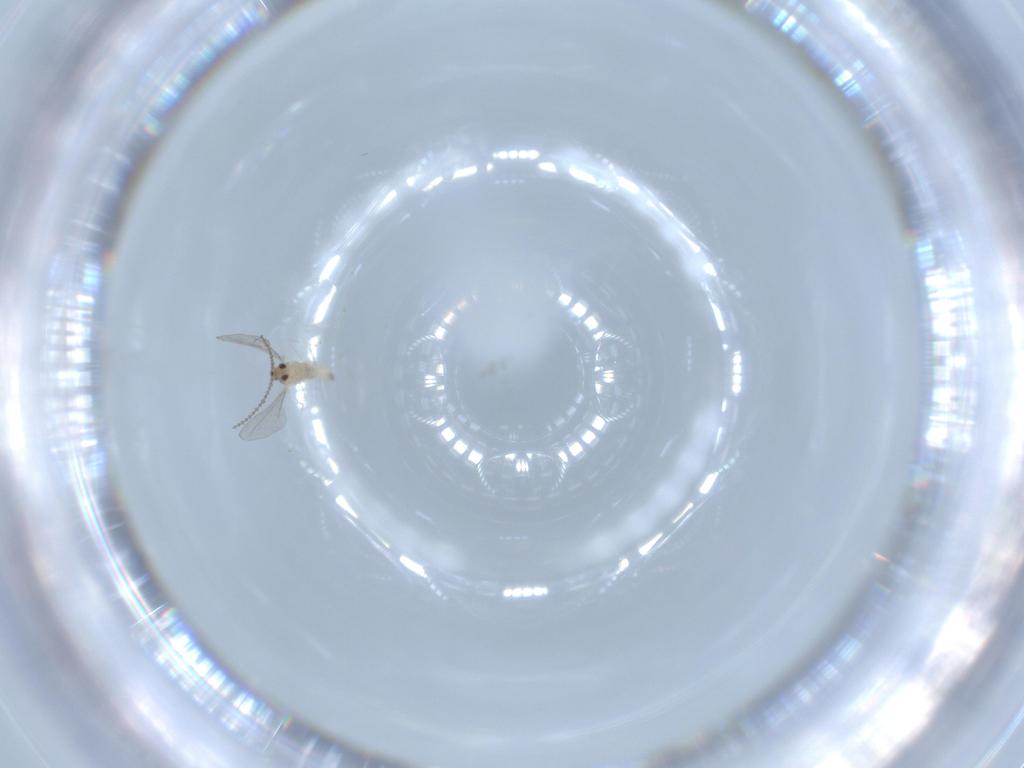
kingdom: Animalia
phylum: Arthropoda
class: Insecta
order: Diptera
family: Cecidomyiidae
